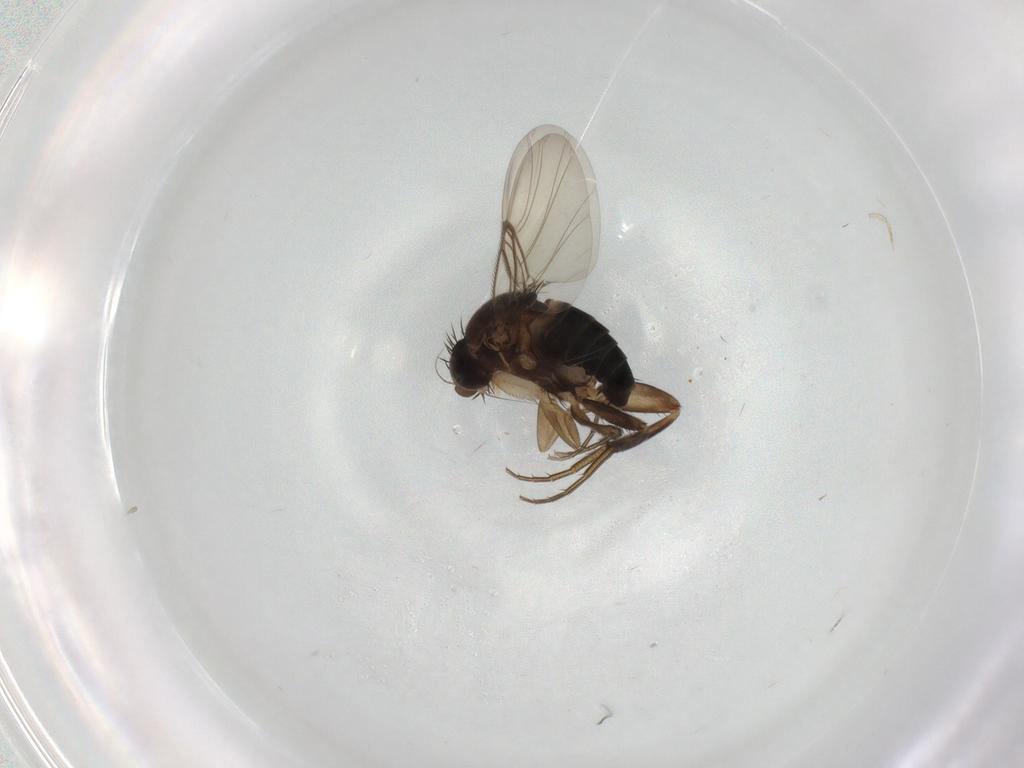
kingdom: Animalia
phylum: Arthropoda
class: Insecta
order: Diptera
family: Phoridae
